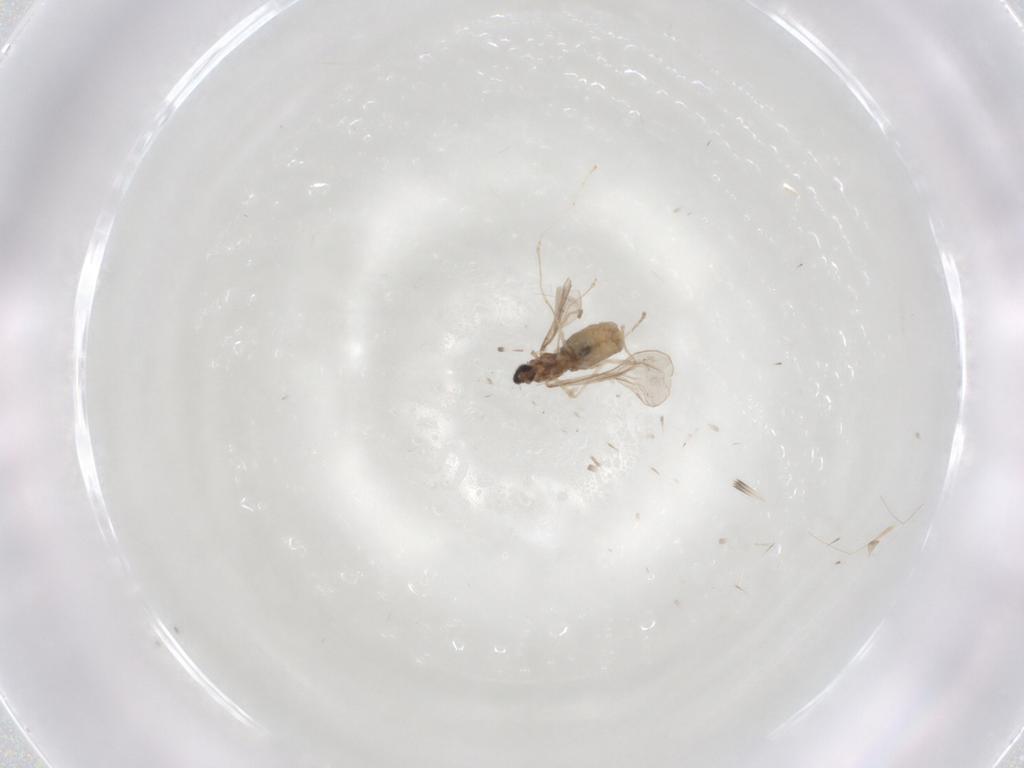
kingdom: Animalia
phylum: Arthropoda
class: Insecta
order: Diptera
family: Cecidomyiidae
